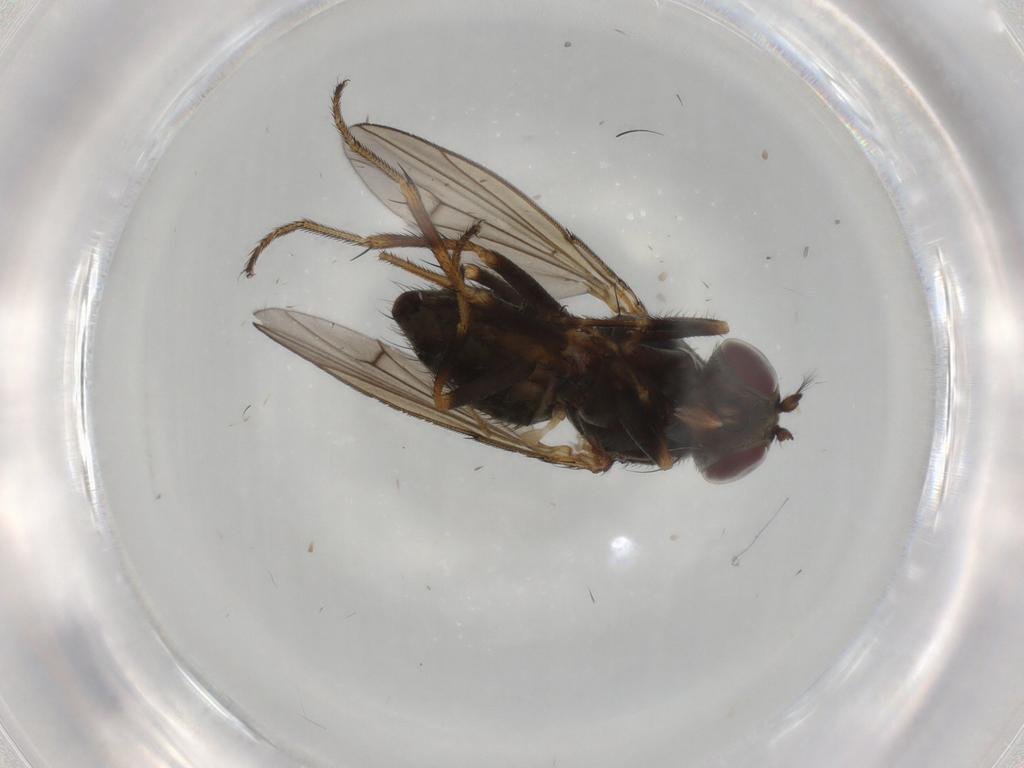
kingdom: Animalia
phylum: Arthropoda
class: Insecta
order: Diptera
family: Ephydridae
